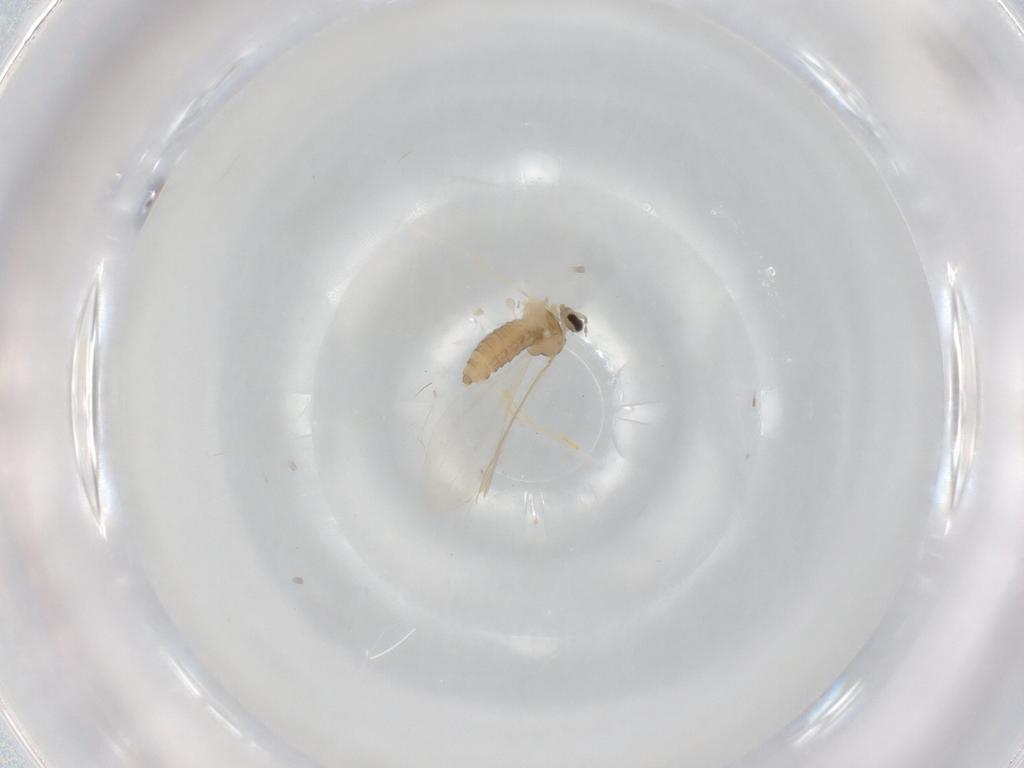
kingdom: Animalia
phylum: Arthropoda
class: Insecta
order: Diptera
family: Cecidomyiidae
